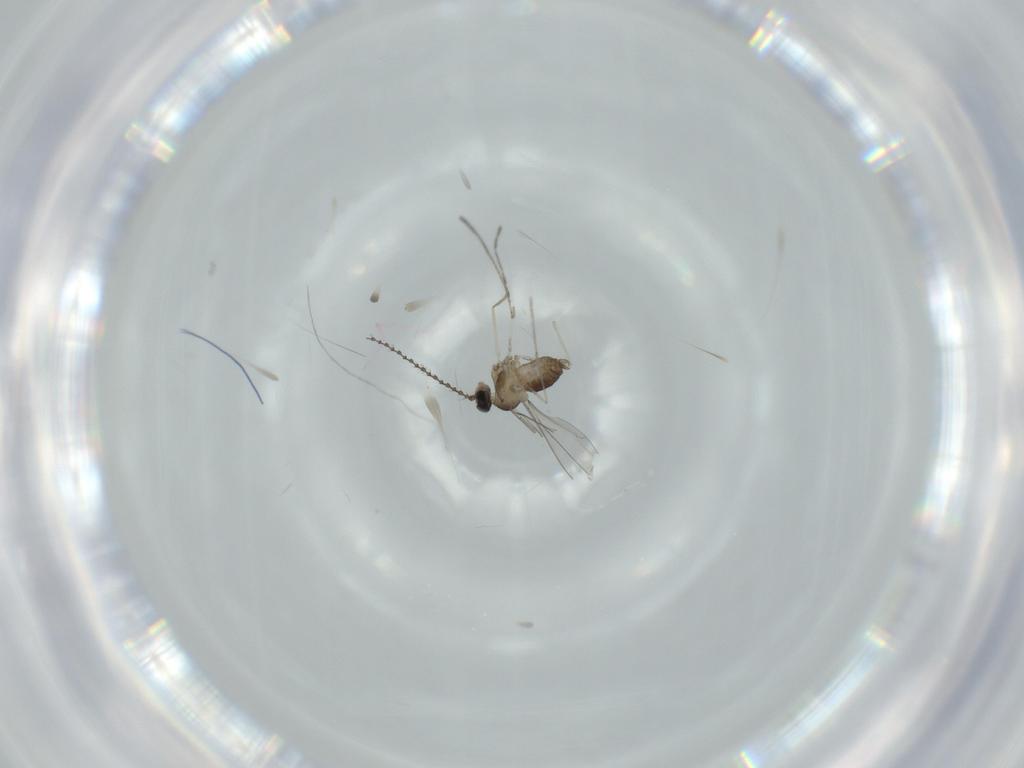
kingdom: Animalia
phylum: Arthropoda
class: Insecta
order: Diptera
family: Cecidomyiidae
